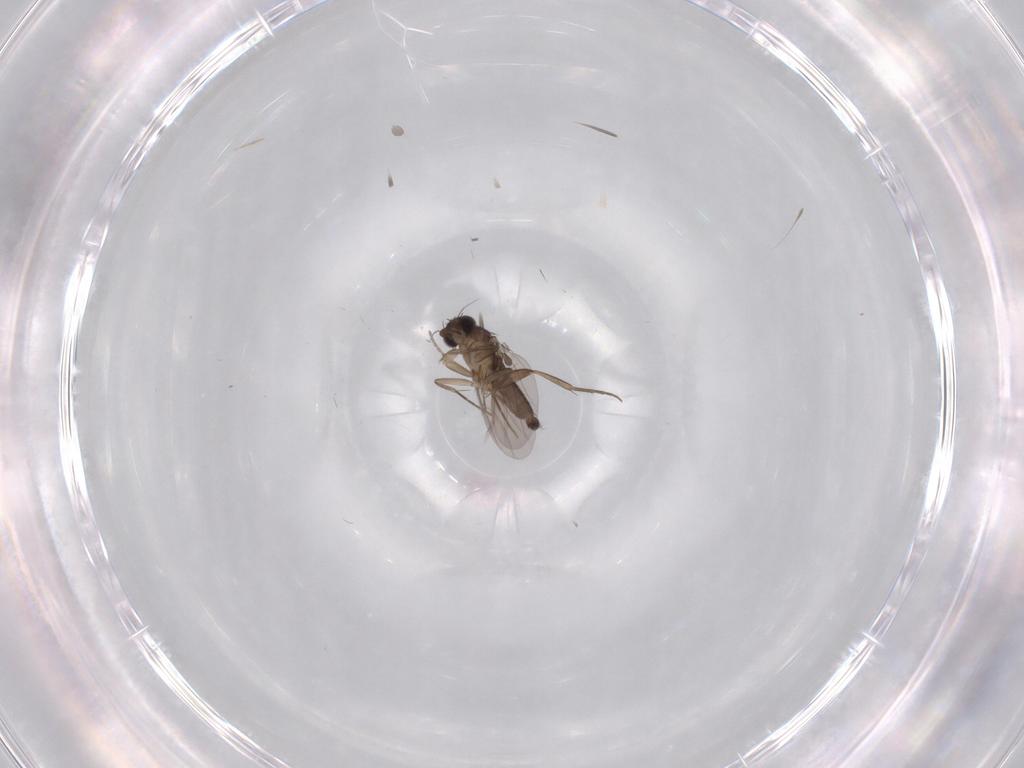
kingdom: Animalia
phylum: Arthropoda
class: Insecta
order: Diptera
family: Phoridae
